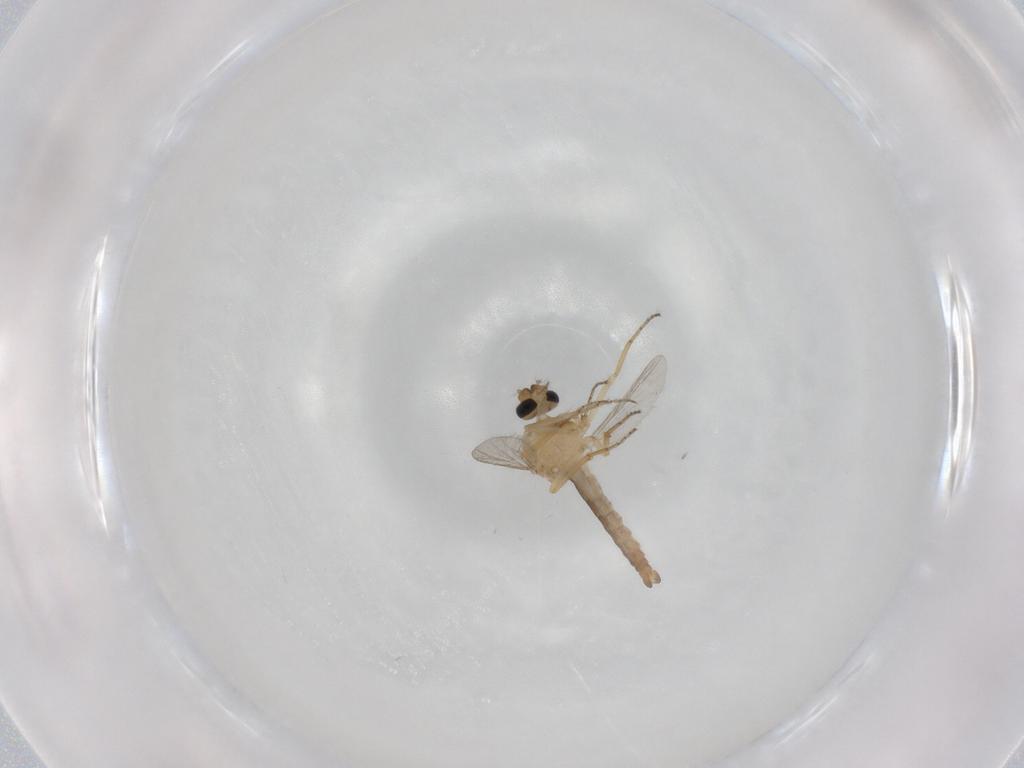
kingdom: Animalia
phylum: Arthropoda
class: Insecta
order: Diptera
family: Ceratopogonidae
